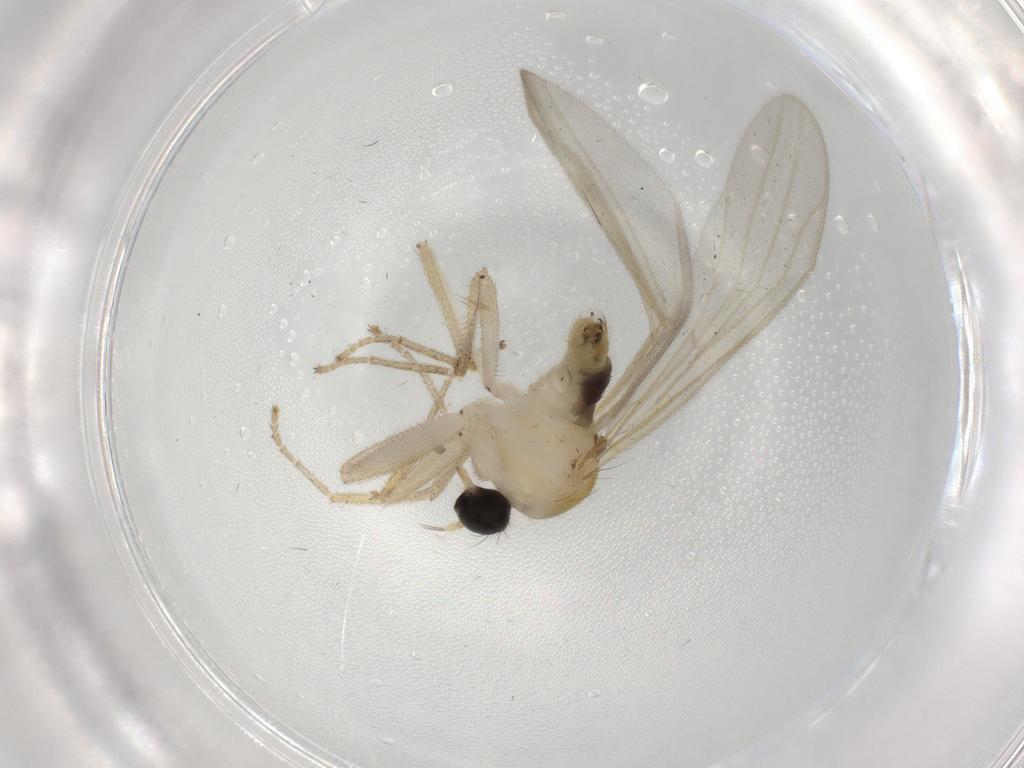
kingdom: Animalia
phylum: Arthropoda
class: Insecta
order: Diptera
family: Hybotidae
